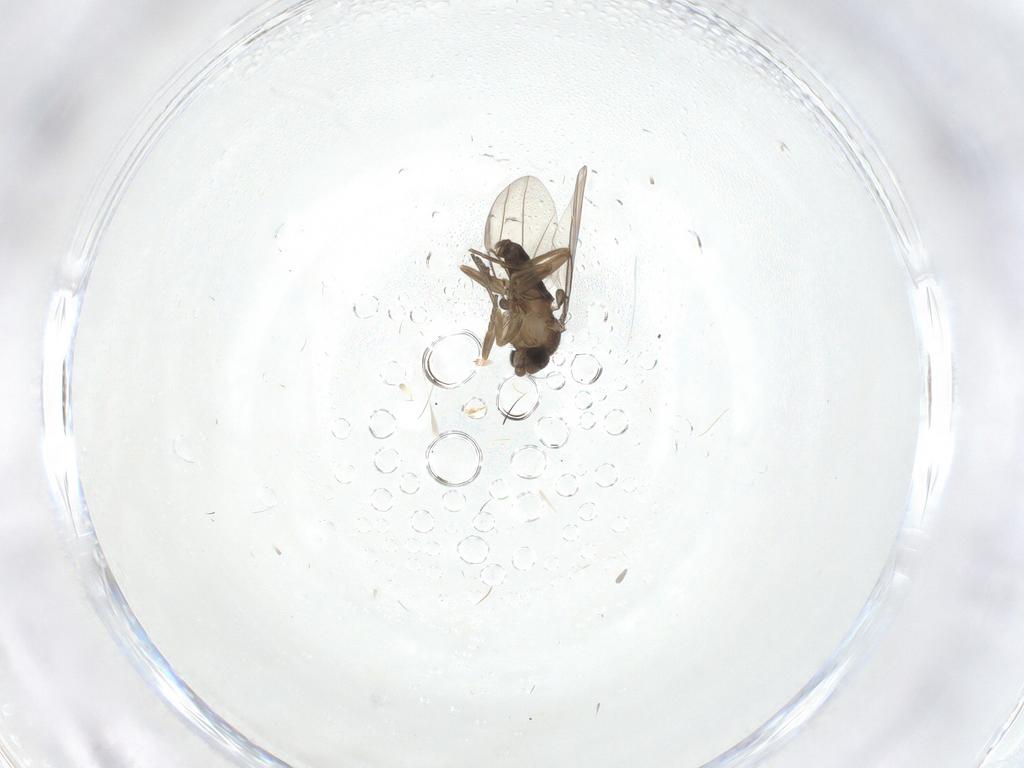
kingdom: Animalia
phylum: Arthropoda
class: Insecta
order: Diptera
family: Phoridae
